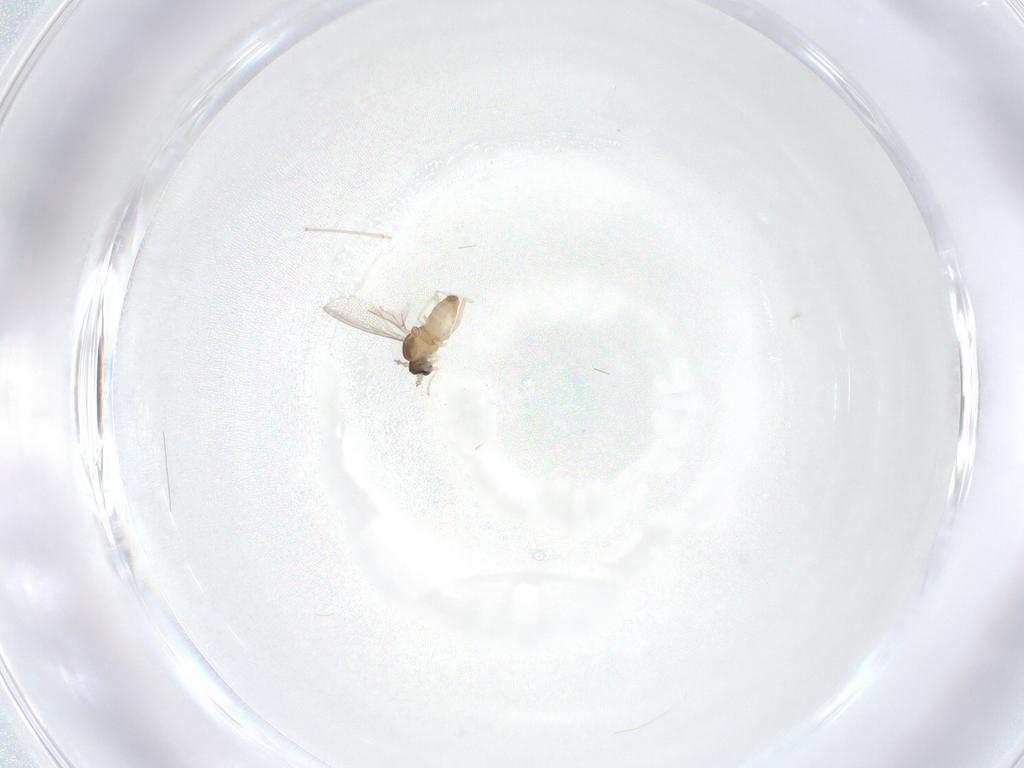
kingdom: Animalia
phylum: Arthropoda
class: Insecta
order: Diptera
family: Cecidomyiidae
